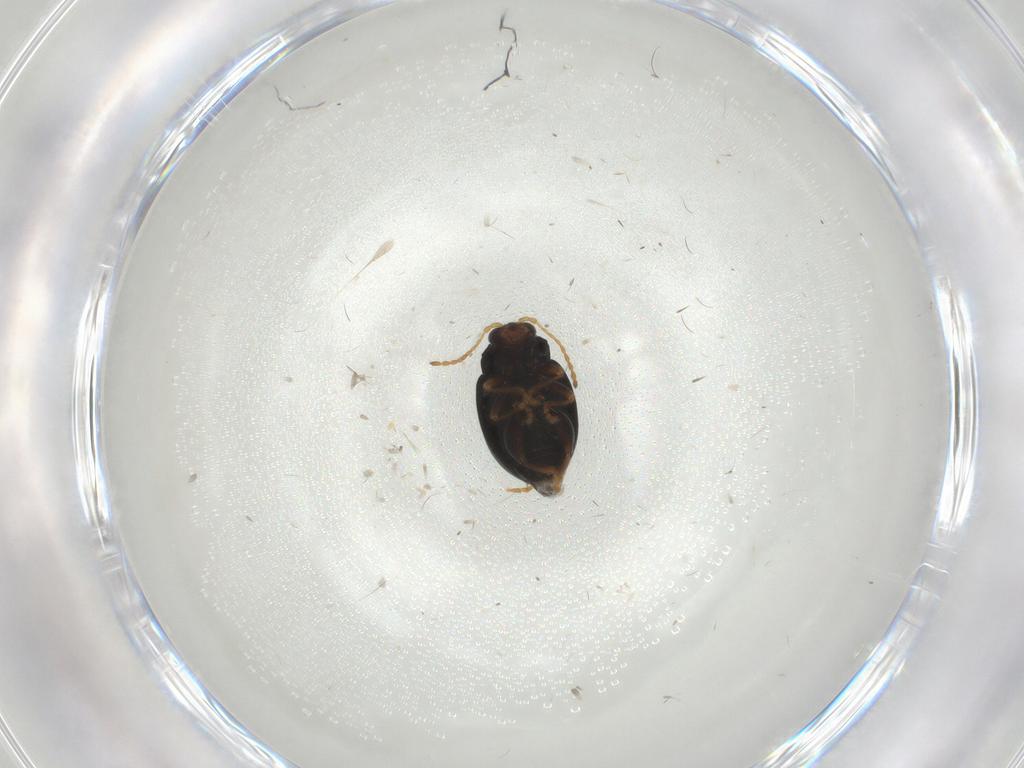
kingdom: Animalia
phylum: Arthropoda
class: Insecta
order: Coleoptera
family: Chrysomelidae
